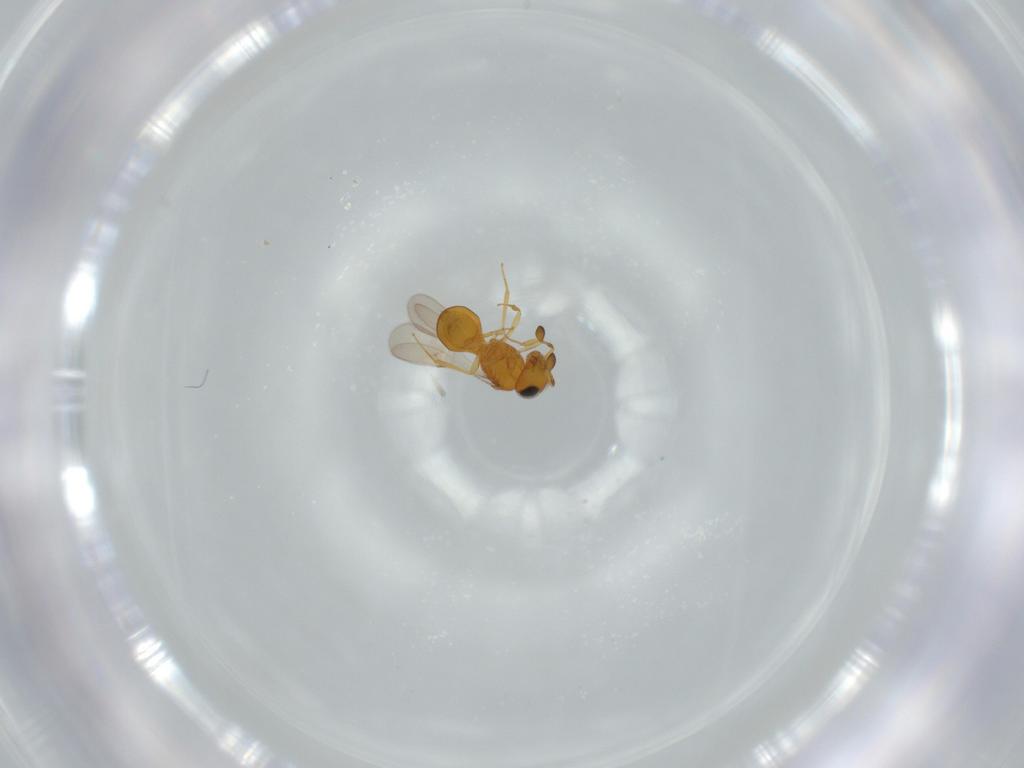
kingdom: Animalia
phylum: Arthropoda
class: Insecta
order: Hymenoptera
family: Scelionidae
